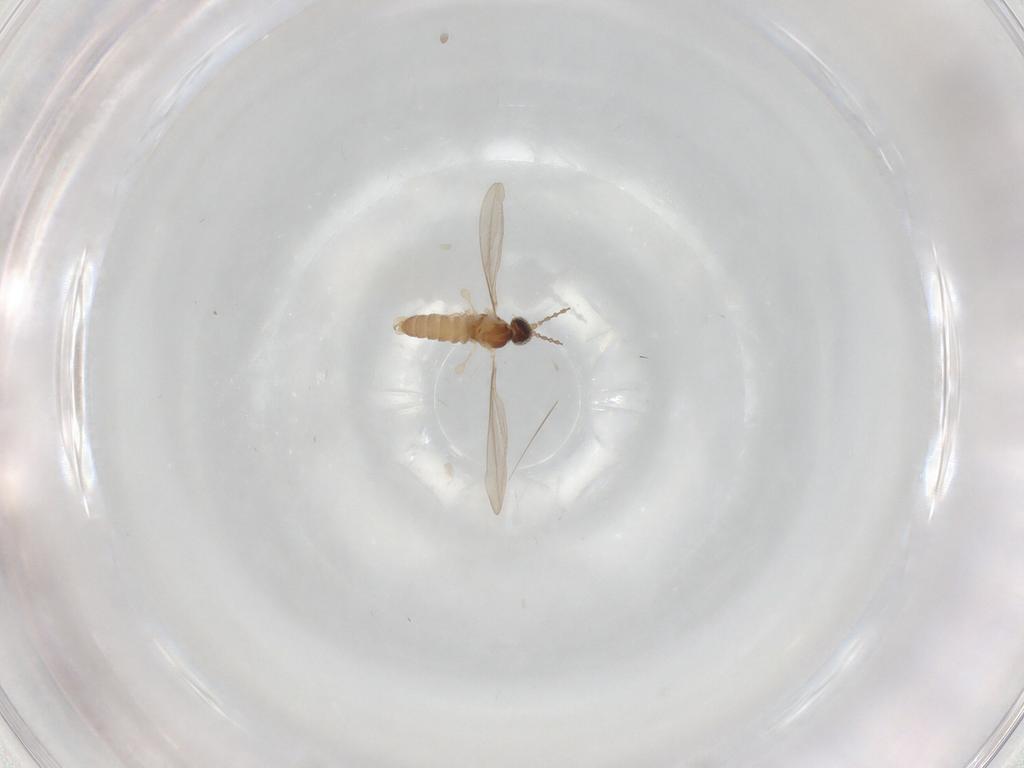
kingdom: Animalia
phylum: Arthropoda
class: Insecta
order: Diptera
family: Cecidomyiidae
